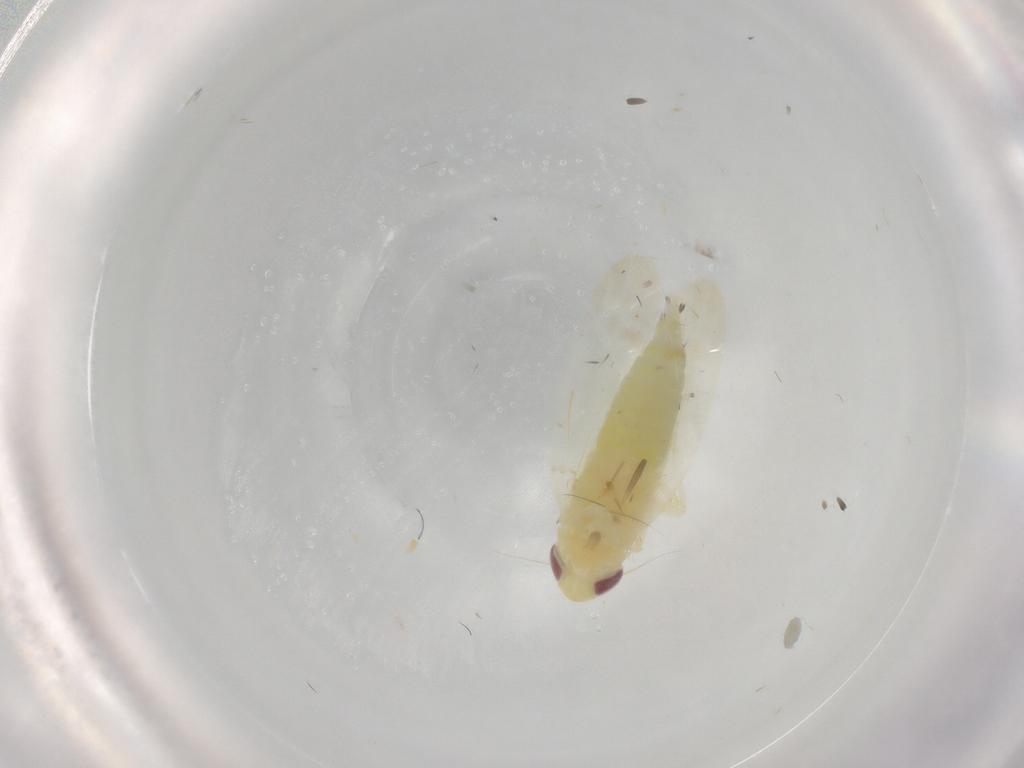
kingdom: Animalia
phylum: Arthropoda
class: Insecta
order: Hemiptera
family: Cicadellidae
